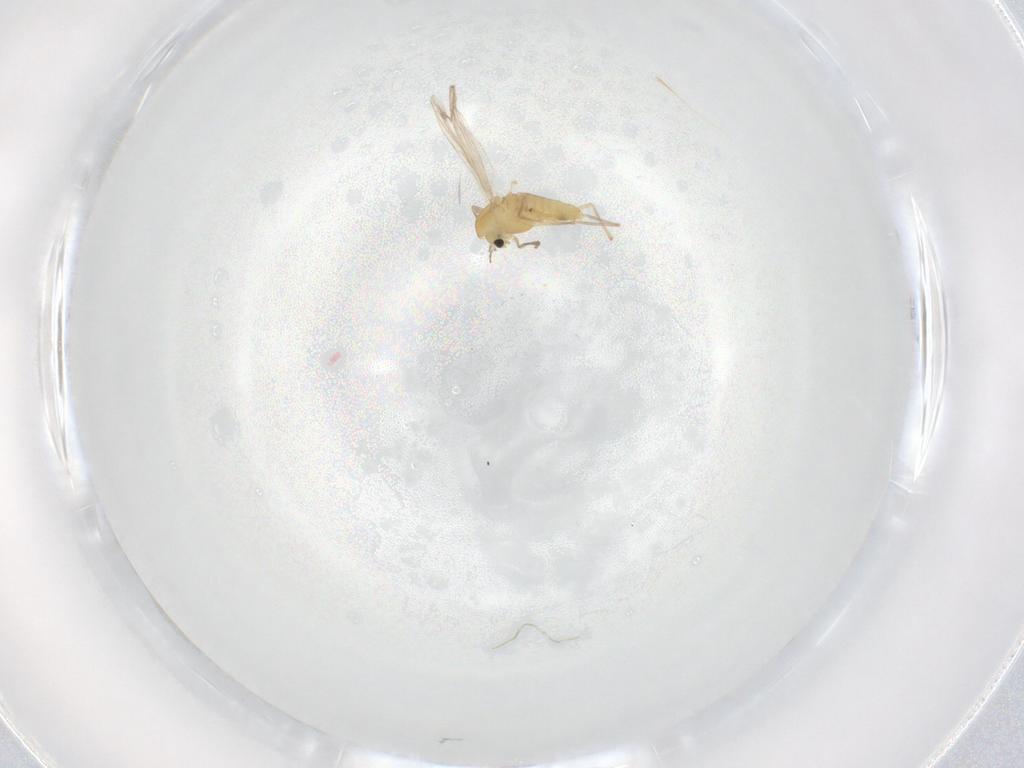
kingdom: Animalia
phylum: Arthropoda
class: Insecta
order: Diptera
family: Chironomidae
